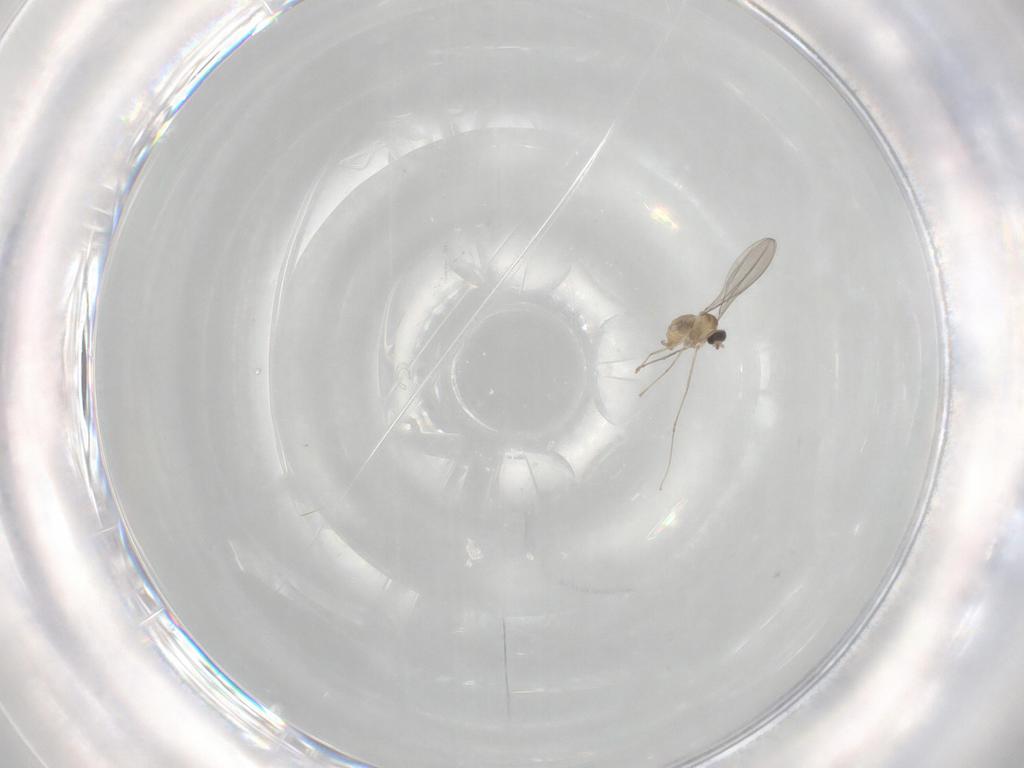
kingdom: Animalia
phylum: Arthropoda
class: Insecta
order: Diptera
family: Cecidomyiidae
